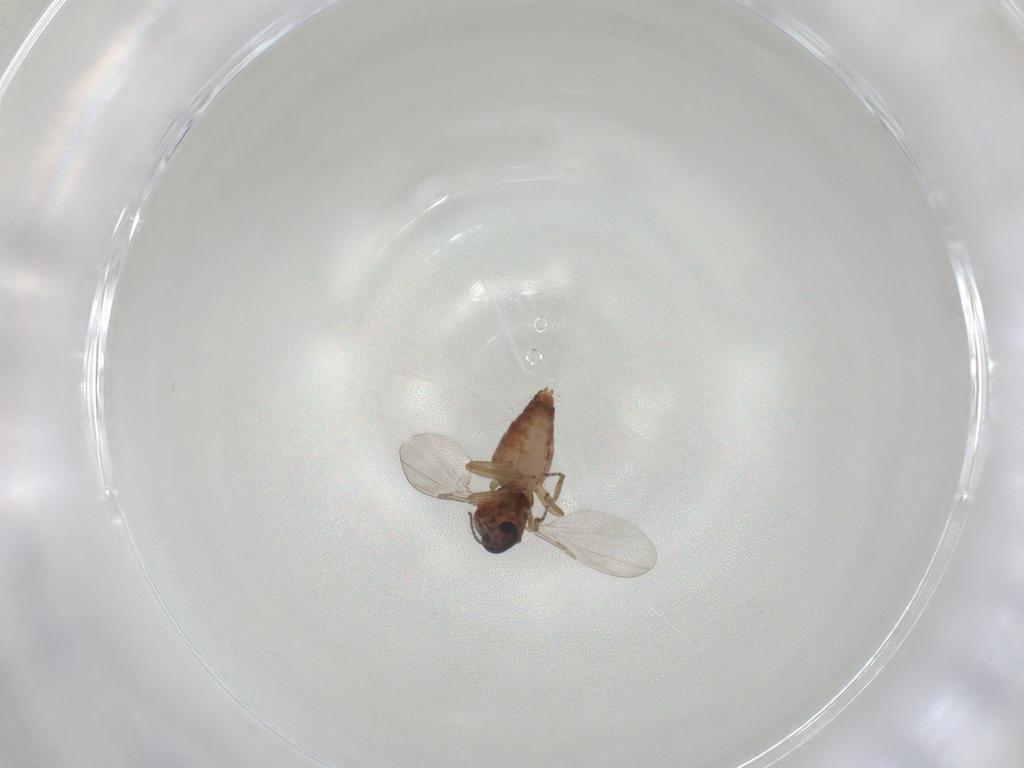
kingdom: Animalia
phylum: Arthropoda
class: Insecta
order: Diptera
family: Ceratopogonidae
